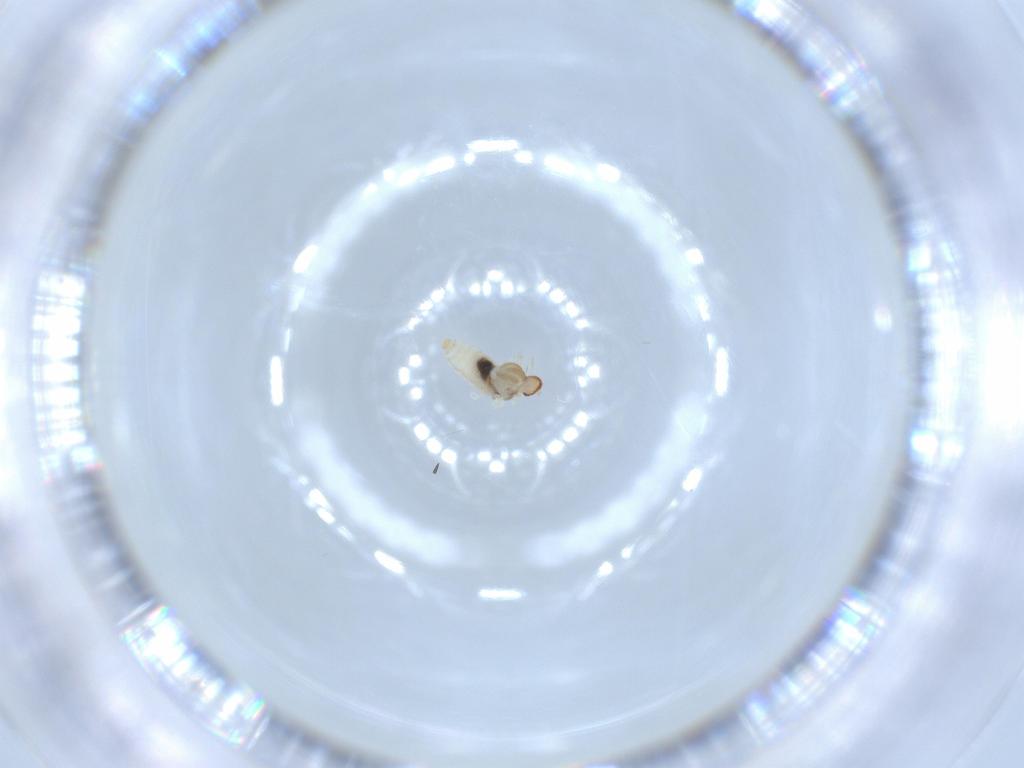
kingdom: Animalia
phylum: Arthropoda
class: Insecta
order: Diptera
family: Cecidomyiidae
